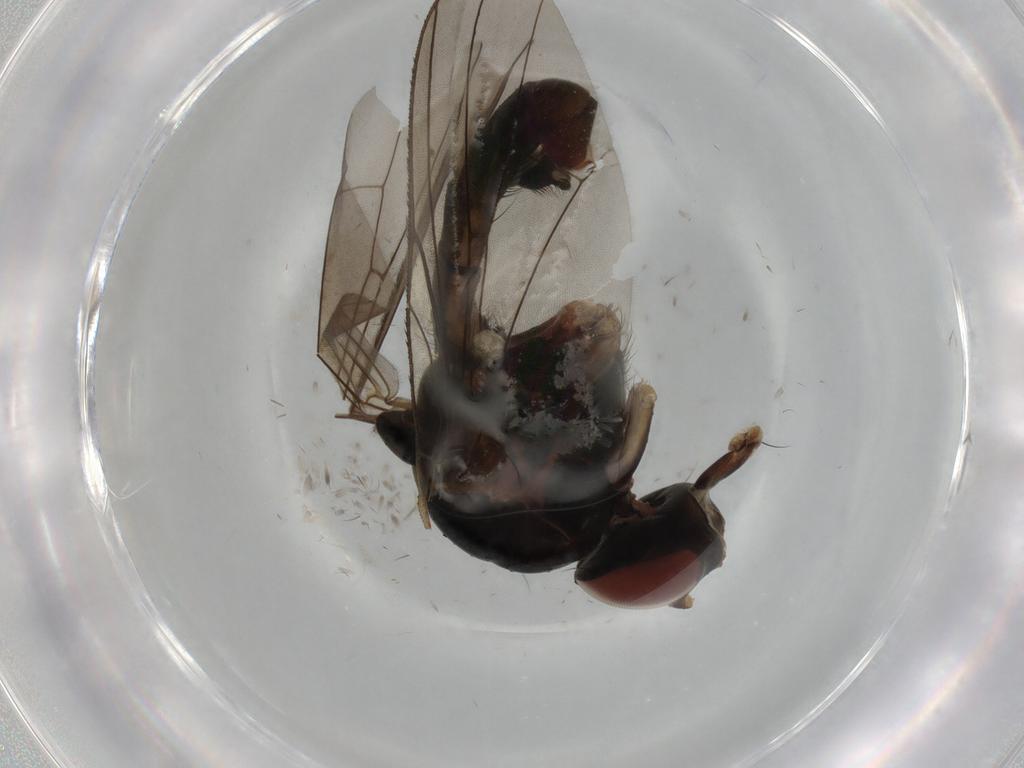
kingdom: Animalia
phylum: Arthropoda
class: Insecta
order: Diptera
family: Anthomyiidae
